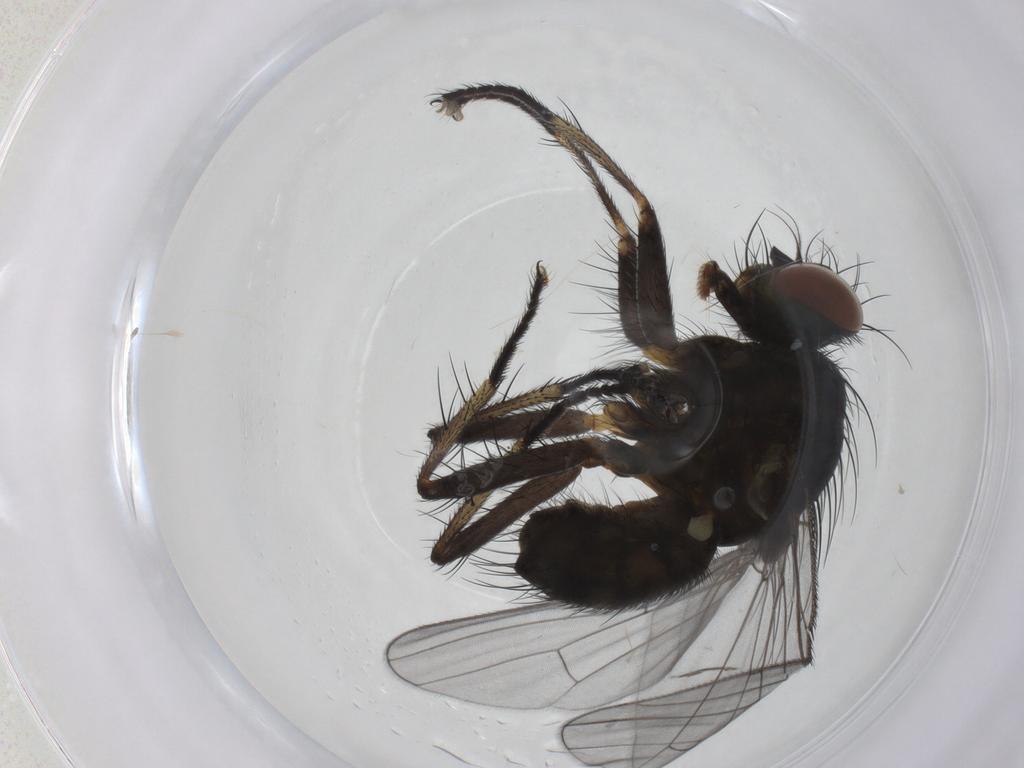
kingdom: Animalia
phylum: Arthropoda
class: Insecta
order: Diptera
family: Muscidae
